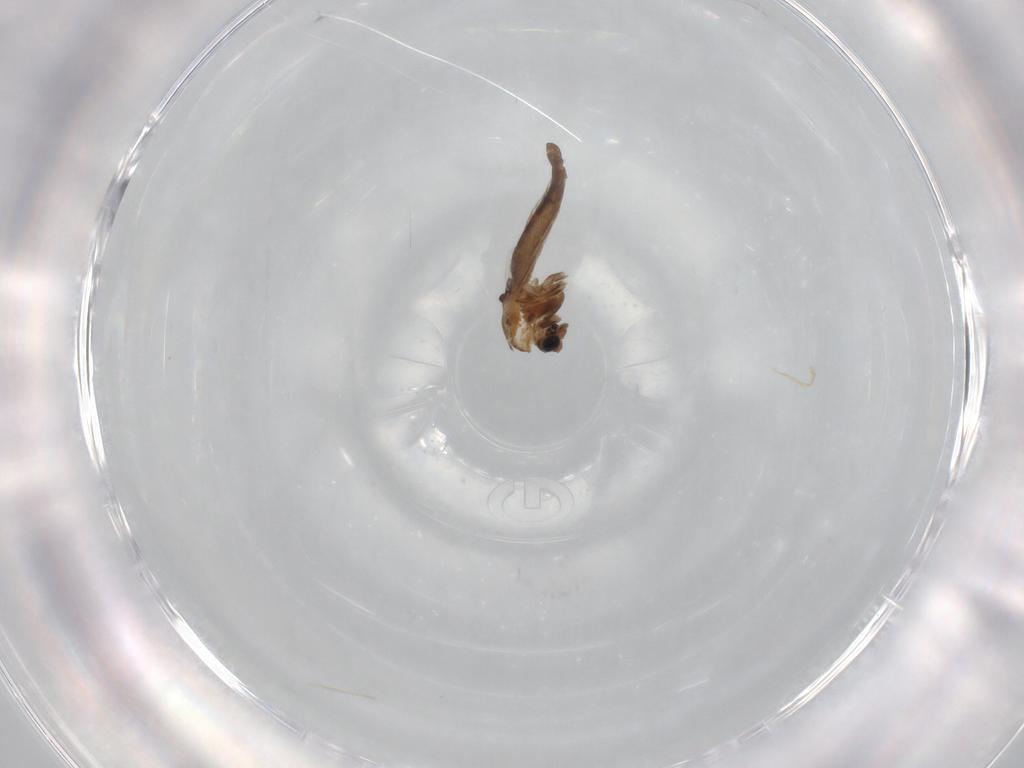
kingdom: Animalia
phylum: Arthropoda
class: Insecta
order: Diptera
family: Chironomidae
